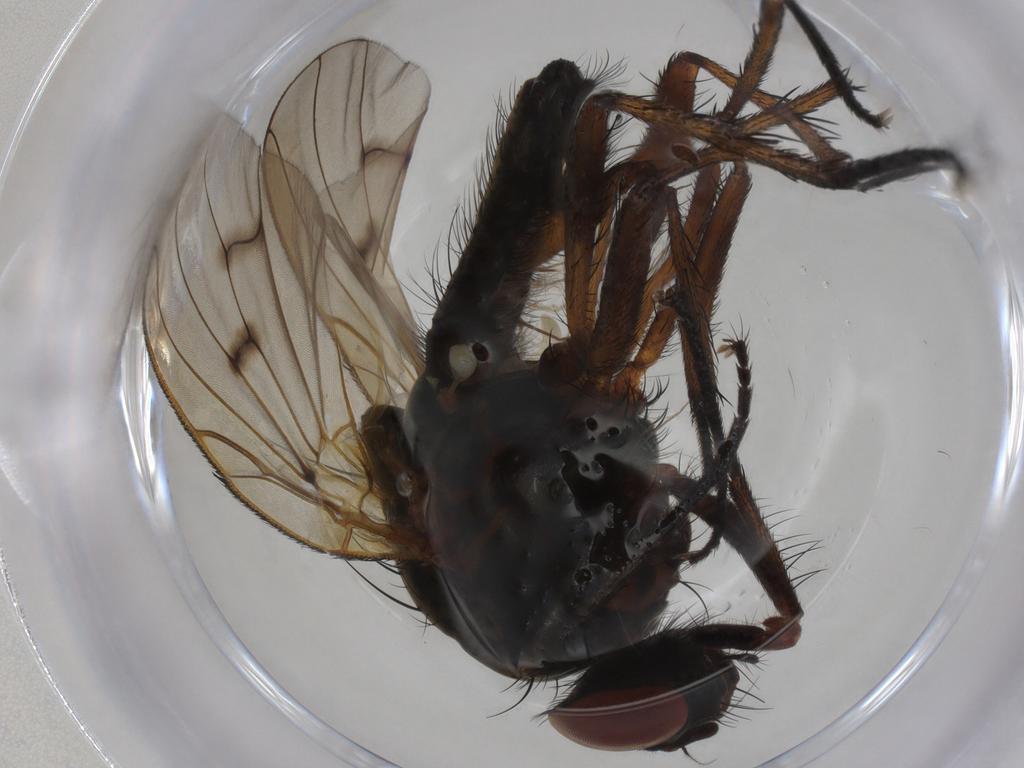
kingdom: Animalia
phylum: Arthropoda
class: Insecta
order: Diptera
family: Anthomyiidae
